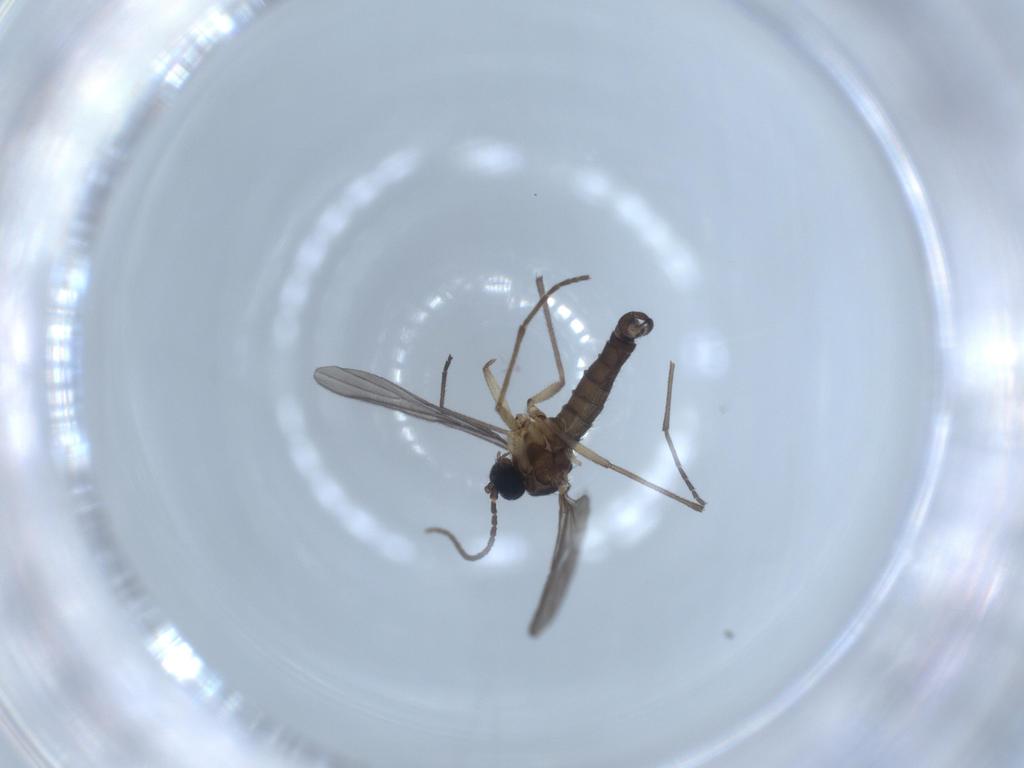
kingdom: Animalia
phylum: Arthropoda
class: Insecta
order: Diptera
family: Sciaridae
